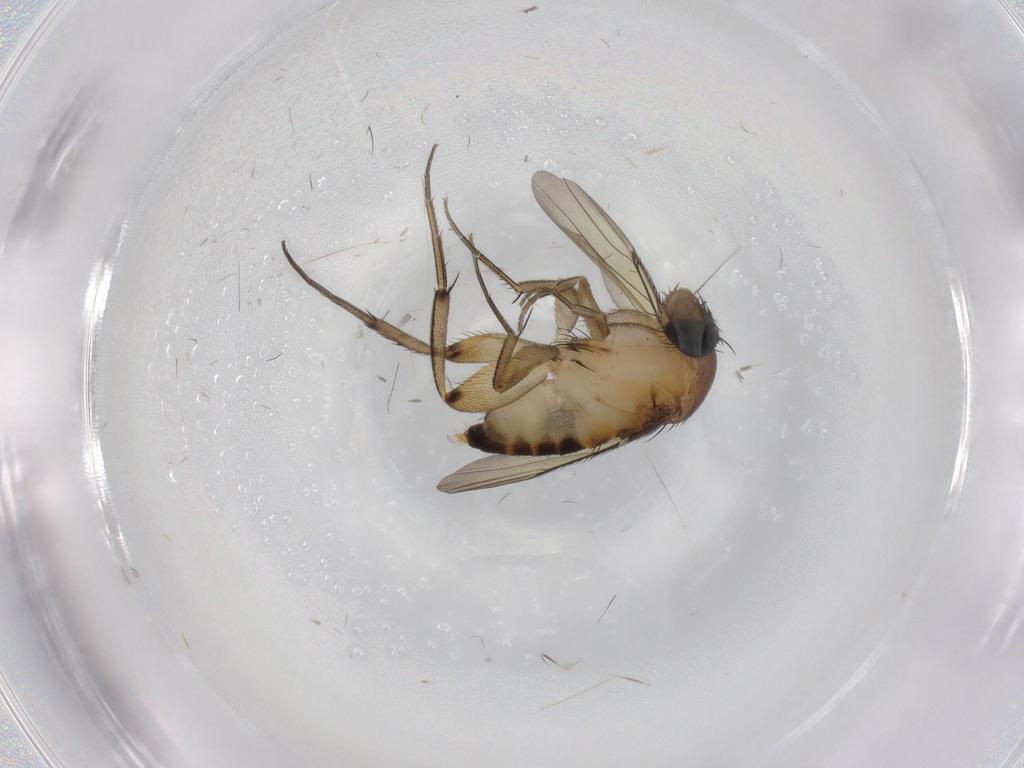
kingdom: Animalia
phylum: Arthropoda
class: Insecta
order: Diptera
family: Phoridae
